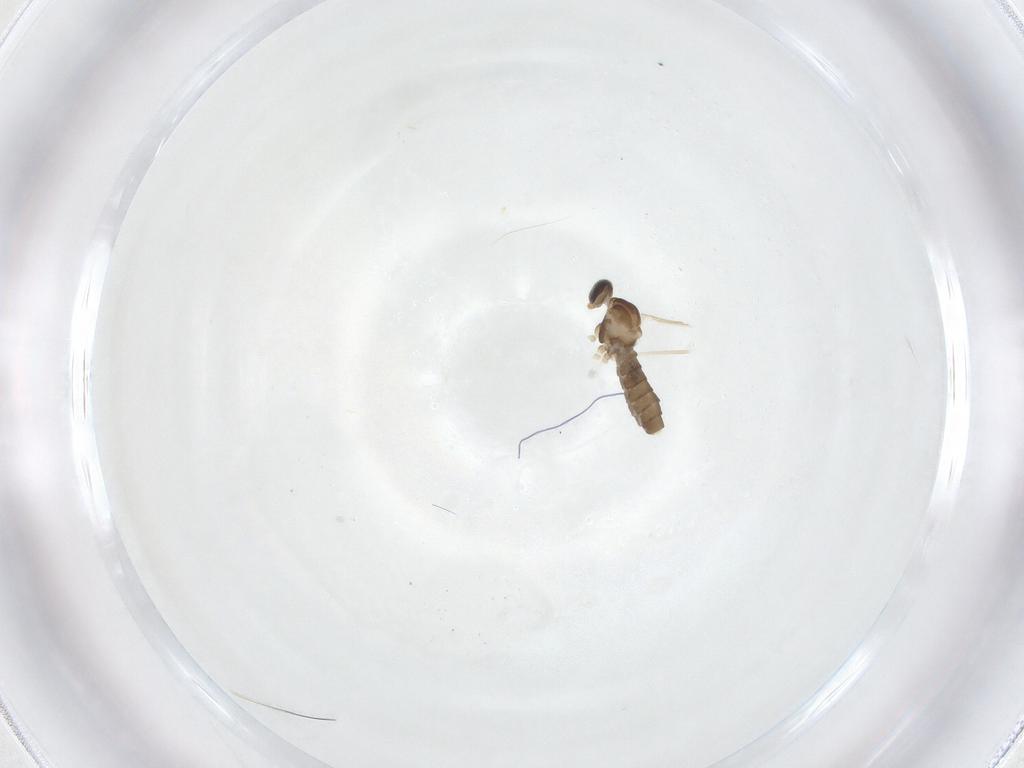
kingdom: Animalia
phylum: Arthropoda
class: Insecta
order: Diptera
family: Cecidomyiidae
